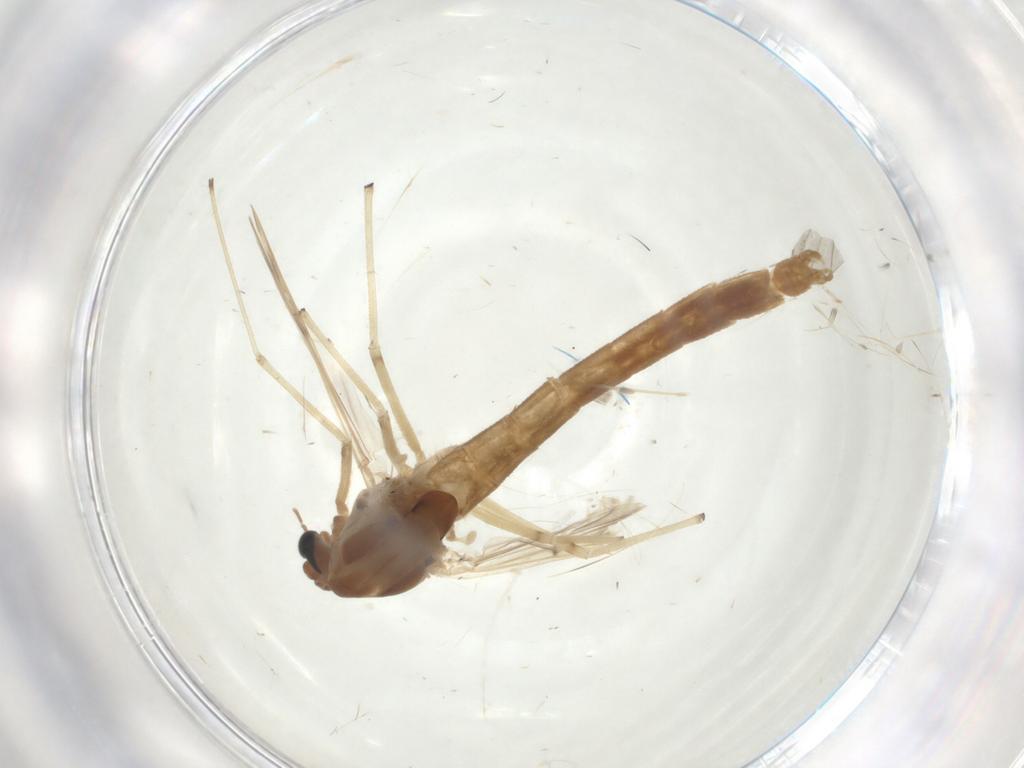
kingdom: Animalia
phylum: Arthropoda
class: Insecta
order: Diptera
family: Chironomidae
